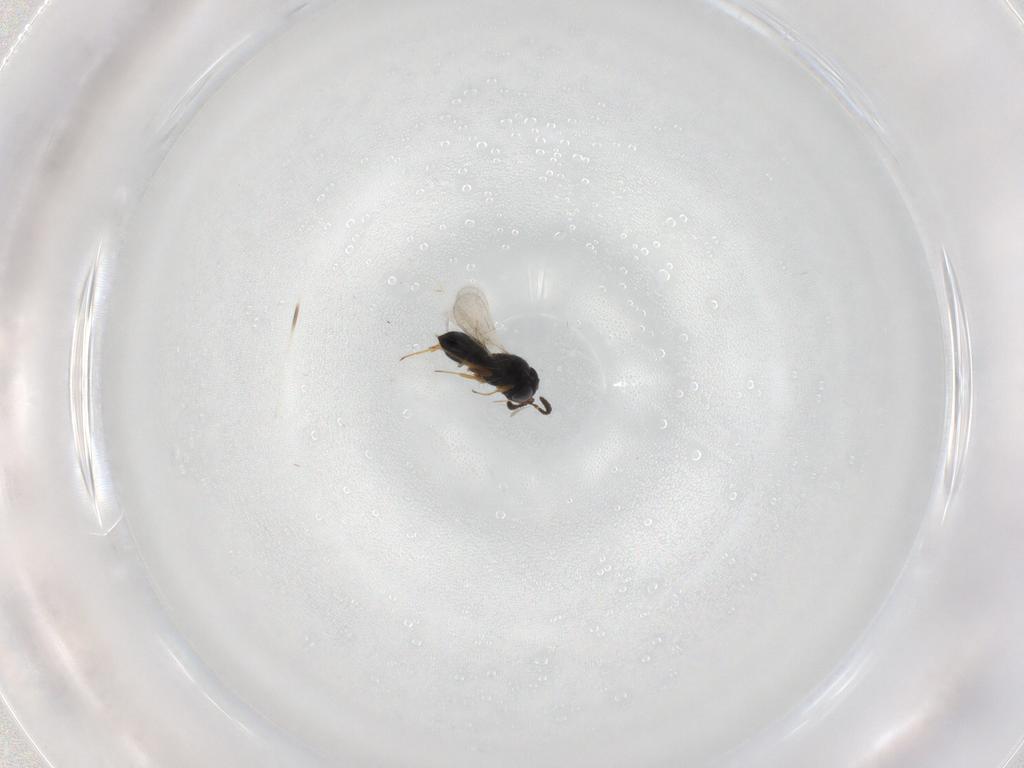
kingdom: Animalia
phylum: Arthropoda
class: Insecta
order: Hymenoptera
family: Scelionidae
